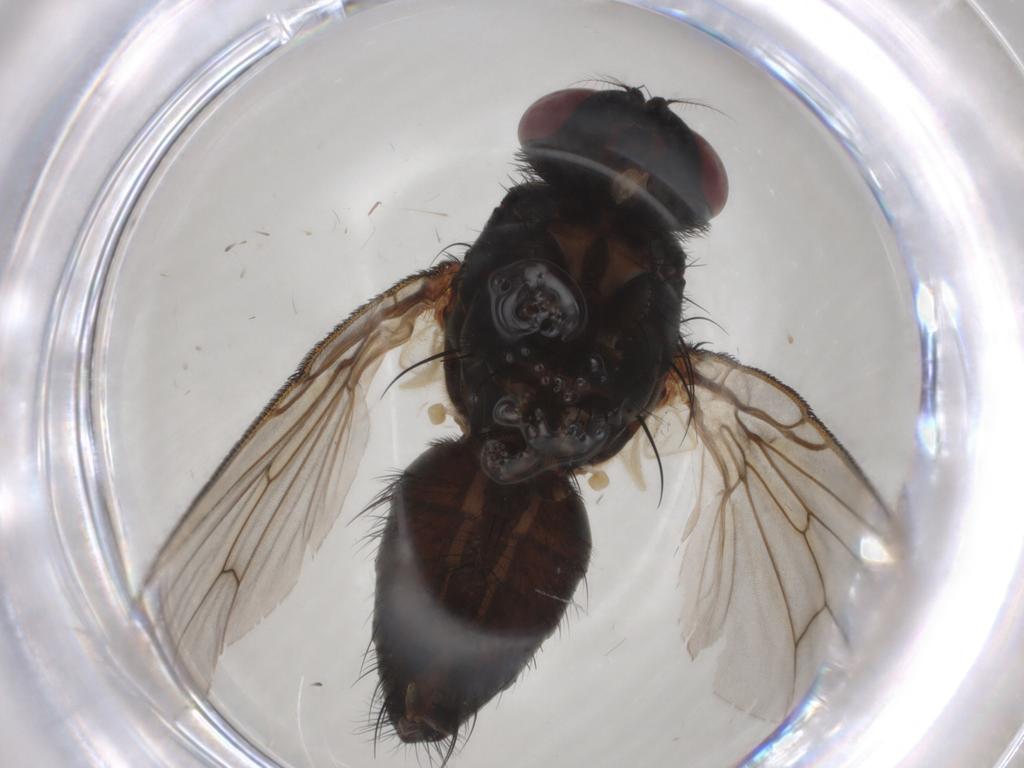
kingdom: Animalia
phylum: Arthropoda
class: Insecta
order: Diptera
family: Muscidae
